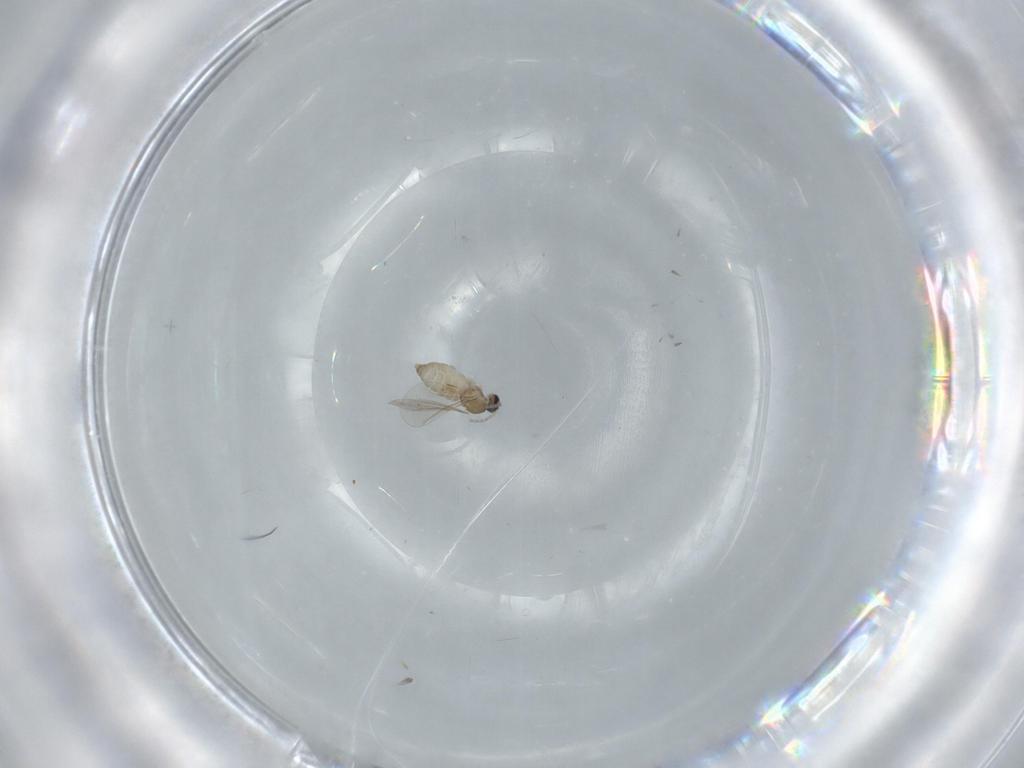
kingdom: Animalia
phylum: Arthropoda
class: Insecta
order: Diptera
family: Cecidomyiidae
